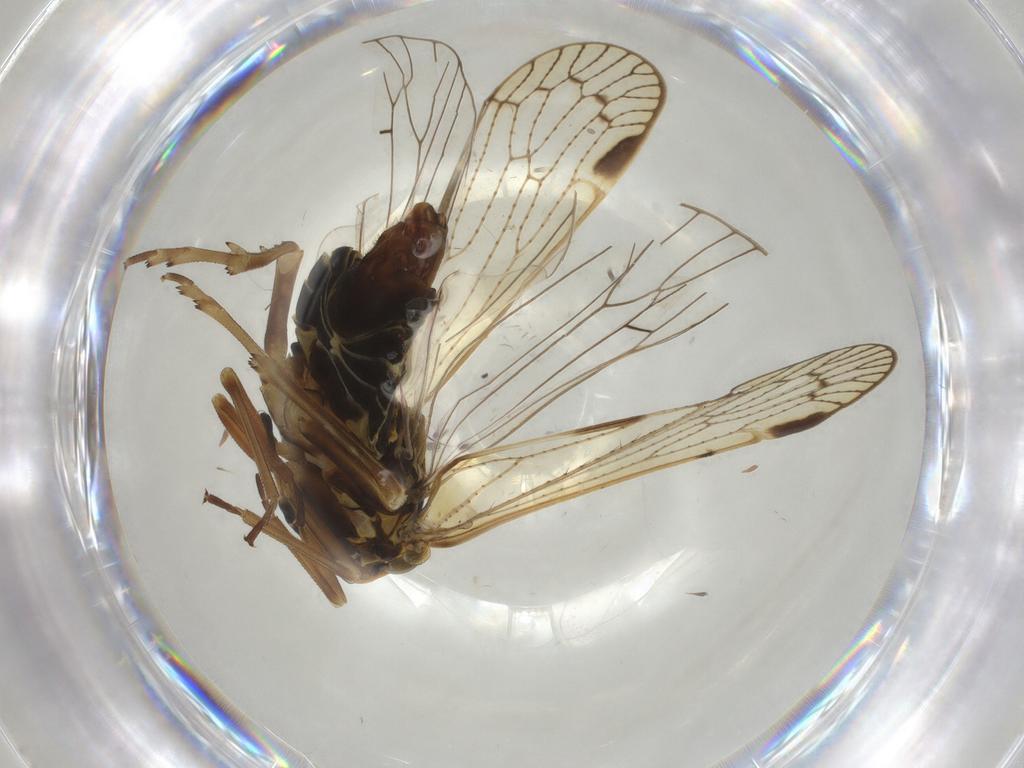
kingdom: Animalia
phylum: Arthropoda
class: Insecta
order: Hemiptera
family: Cixiidae
